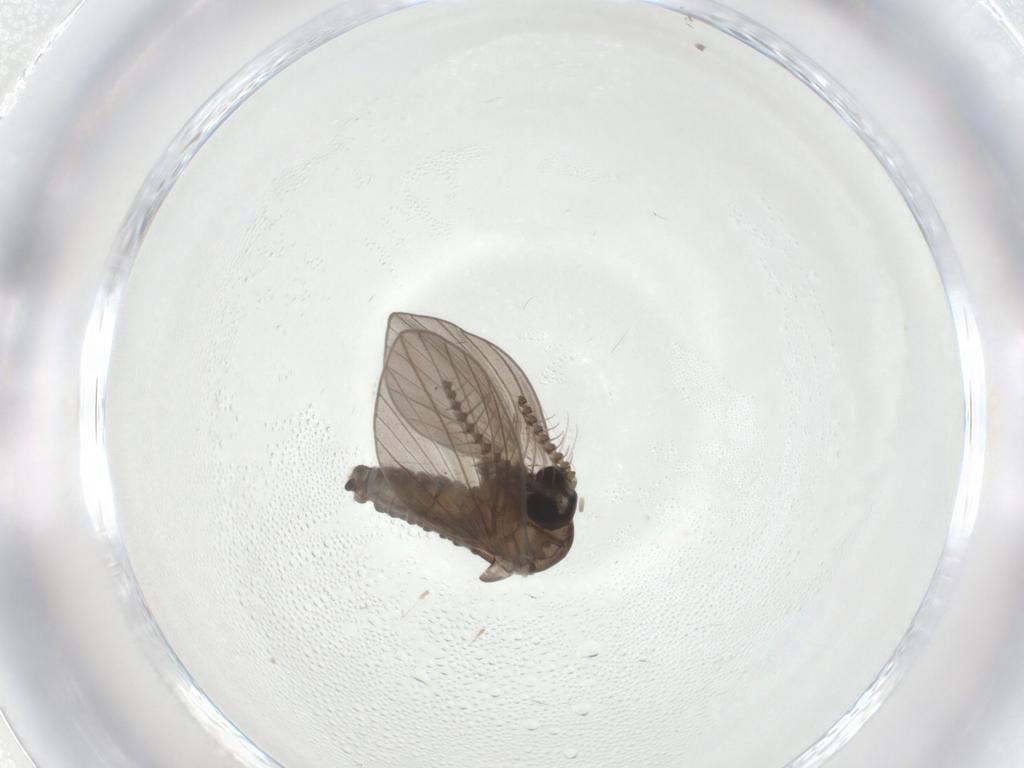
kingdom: Animalia
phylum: Arthropoda
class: Insecta
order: Diptera
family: Psychodidae
